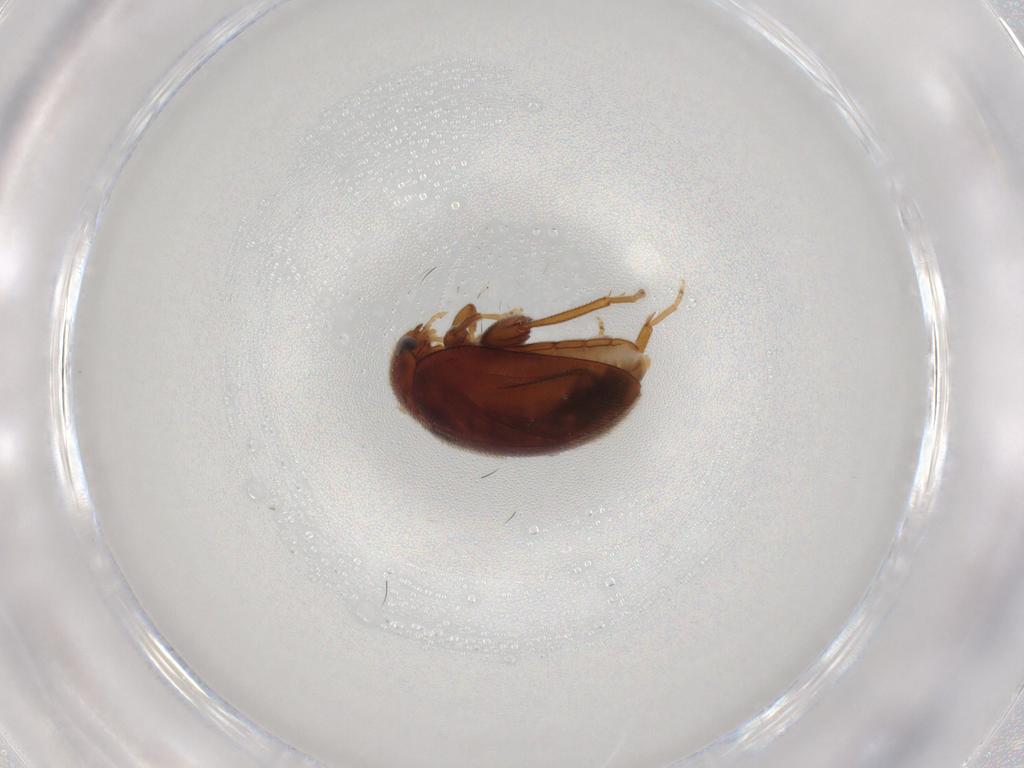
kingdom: Animalia
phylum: Arthropoda
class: Insecta
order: Coleoptera
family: Scirtidae
